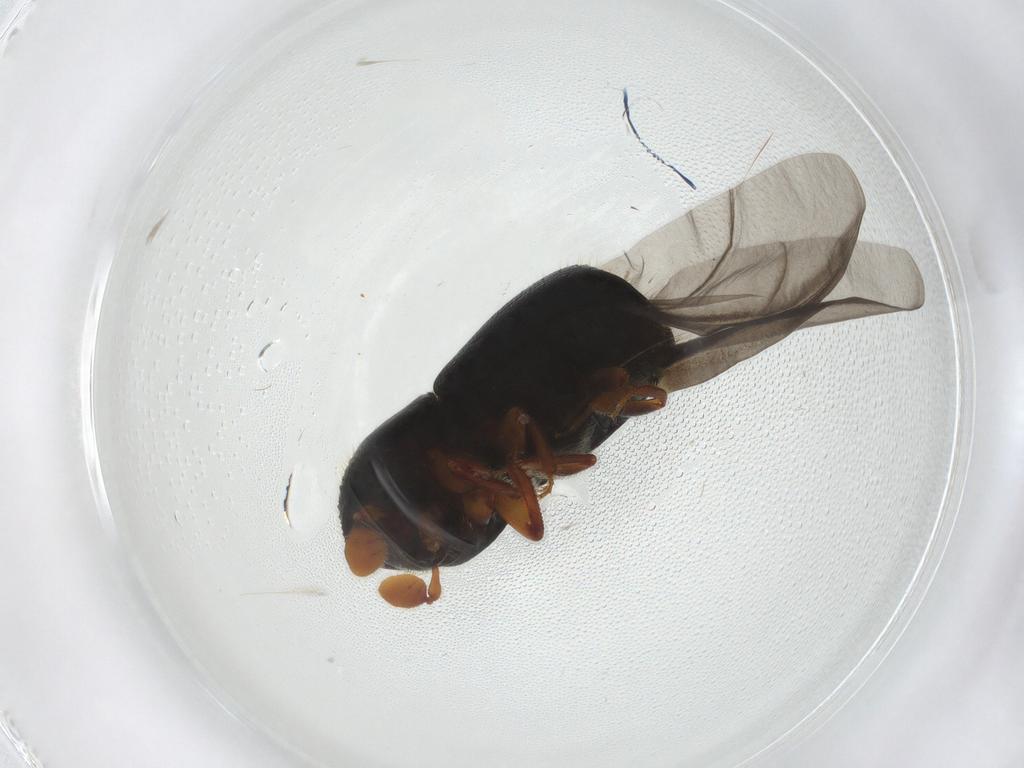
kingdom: Animalia
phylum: Arthropoda
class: Insecta
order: Coleoptera
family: Curculionidae
